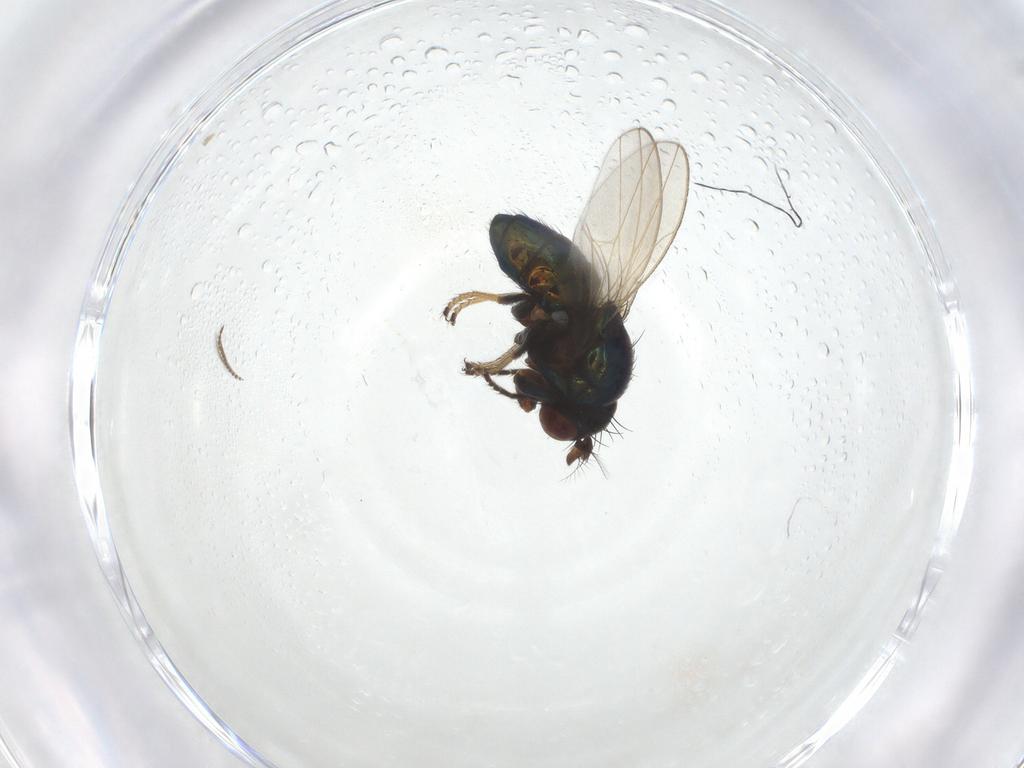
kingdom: Animalia
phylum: Arthropoda
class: Insecta
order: Diptera
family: Ephydridae
